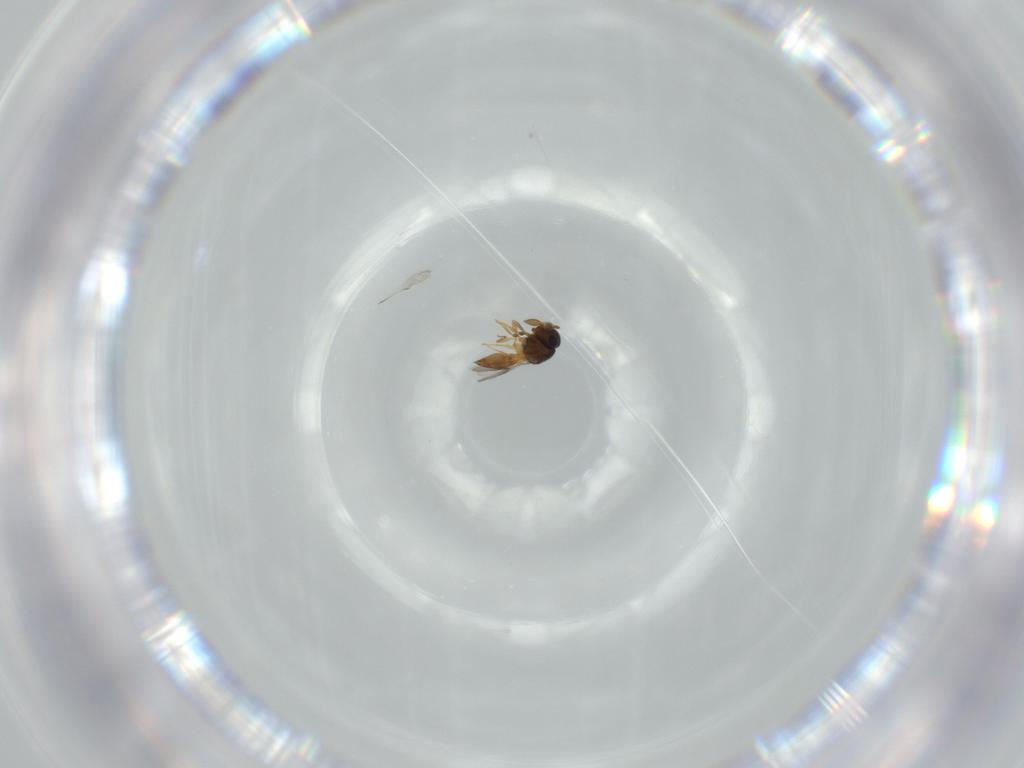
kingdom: Animalia
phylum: Arthropoda
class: Insecta
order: Hymenoptera
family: Scelionidae
